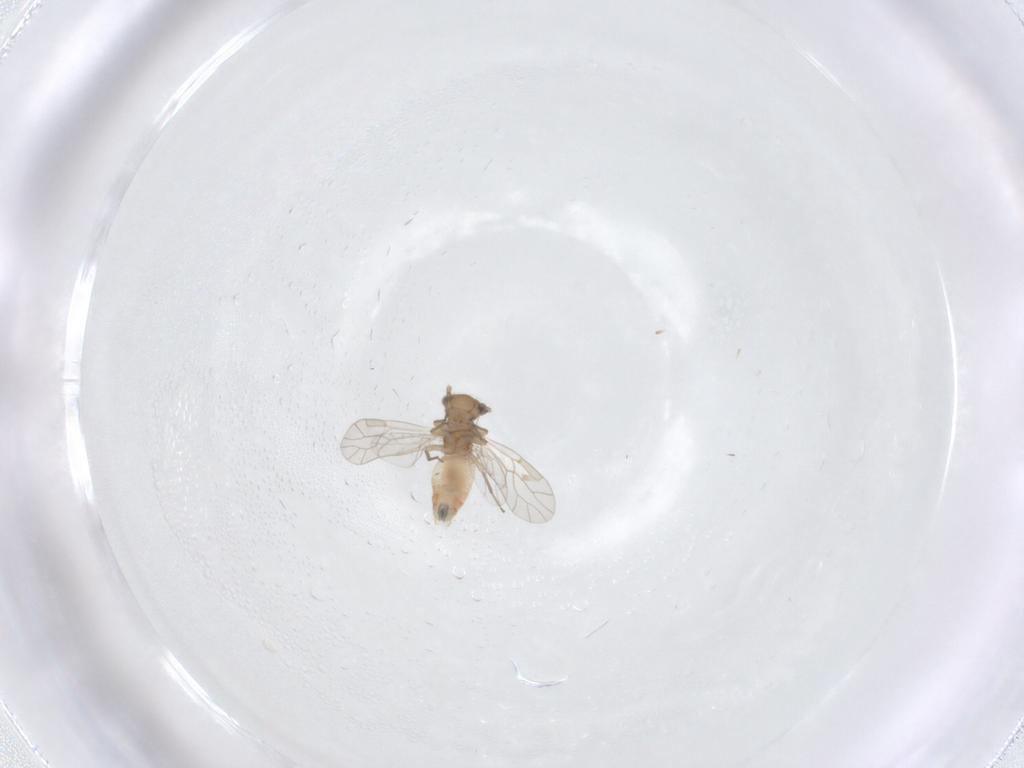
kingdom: Animalia
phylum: Arthropoda
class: Insecta
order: Psocodea
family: Peripsocidae
